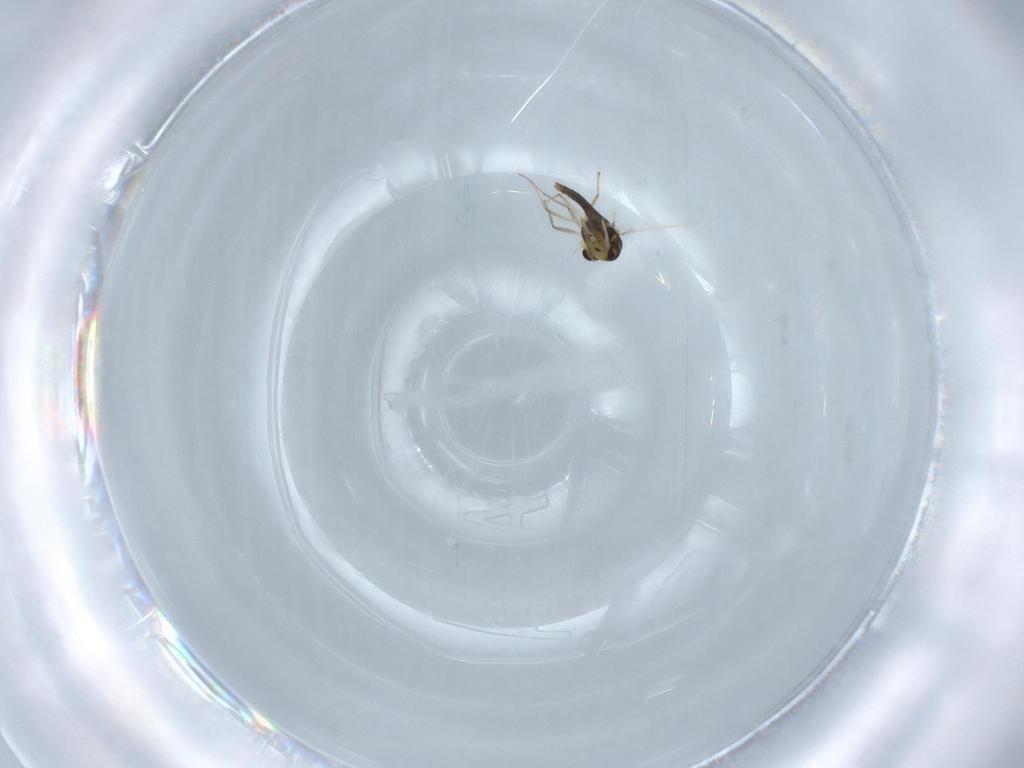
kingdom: Animalia
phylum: Arthropoda
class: Insecta
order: Diptera
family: Chironomidae
